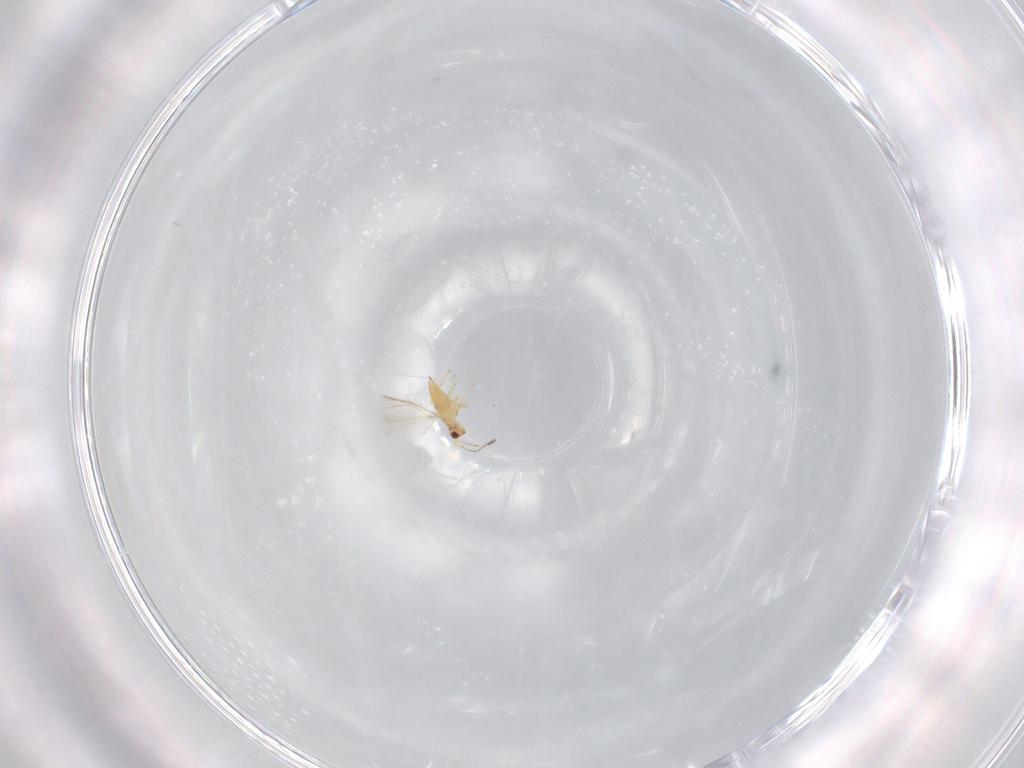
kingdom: Animalia
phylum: Arthropoda
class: Insecta
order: Hymenoptera
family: Mymaridae
